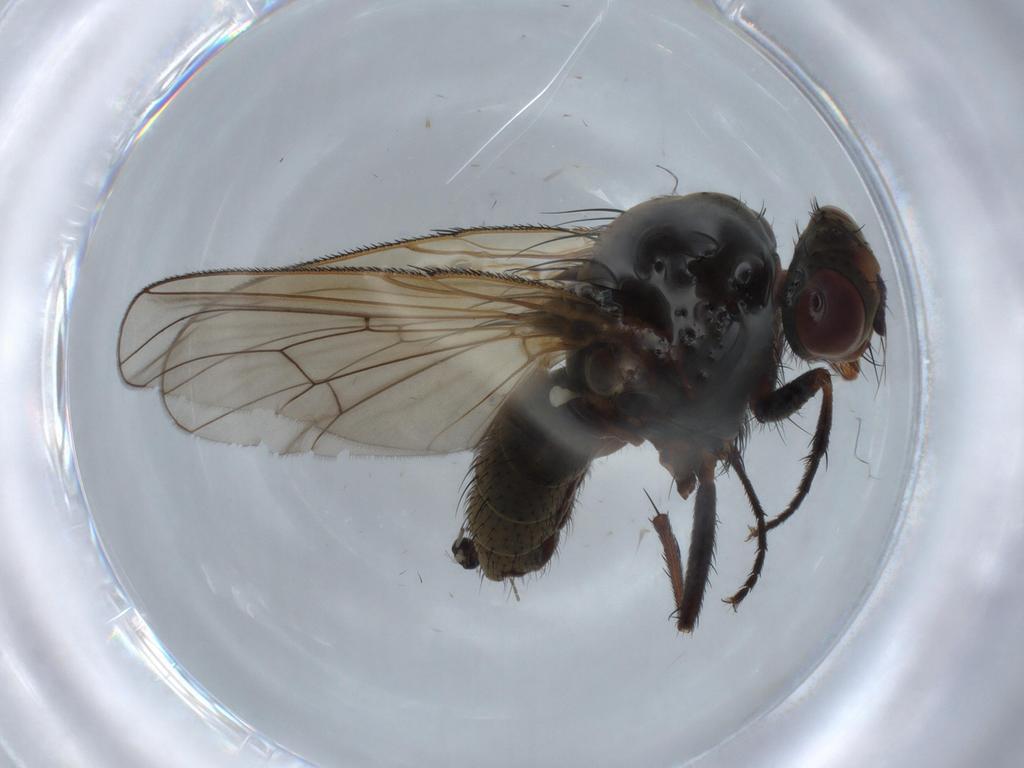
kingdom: Animalia
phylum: Arthropoda
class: Insecta
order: Diptera
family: Anthomyiidae
